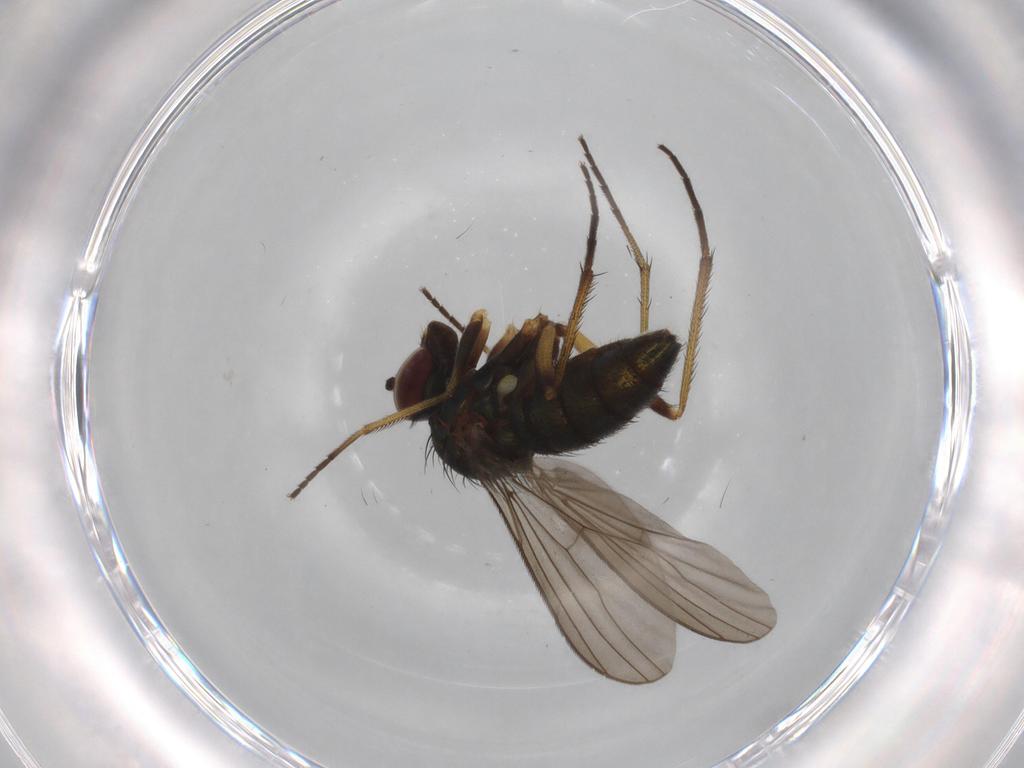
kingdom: Animalia
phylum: Arthropoda
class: Insecta
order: Diptera
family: Dolichopodidae
